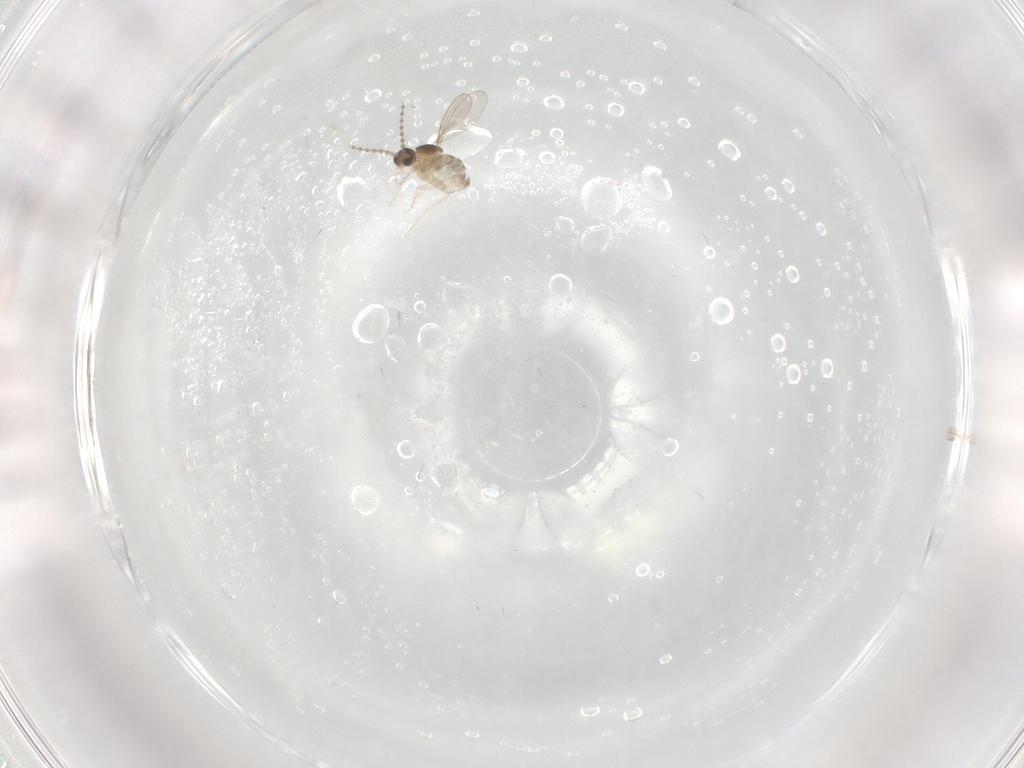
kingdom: Animalia
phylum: Arthropoda
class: Insecta
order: Diptera
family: Cecidomyiidae
